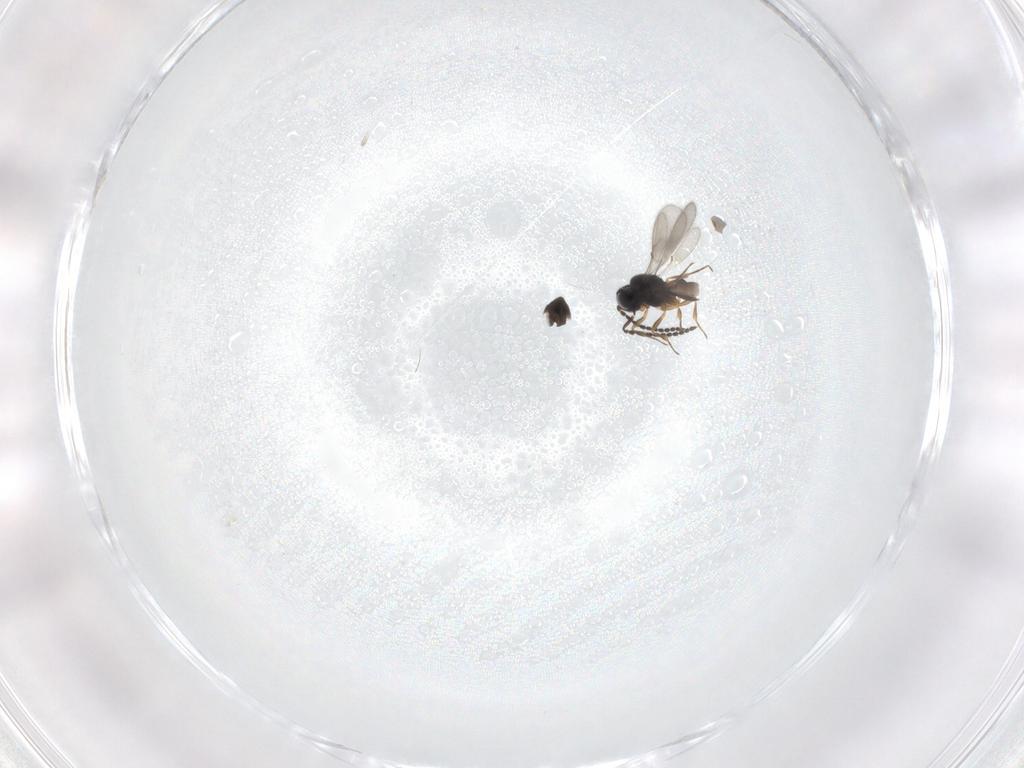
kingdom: Animalia
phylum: Arthropoda
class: Insecta
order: Hymenoptera
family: Scelionidae
